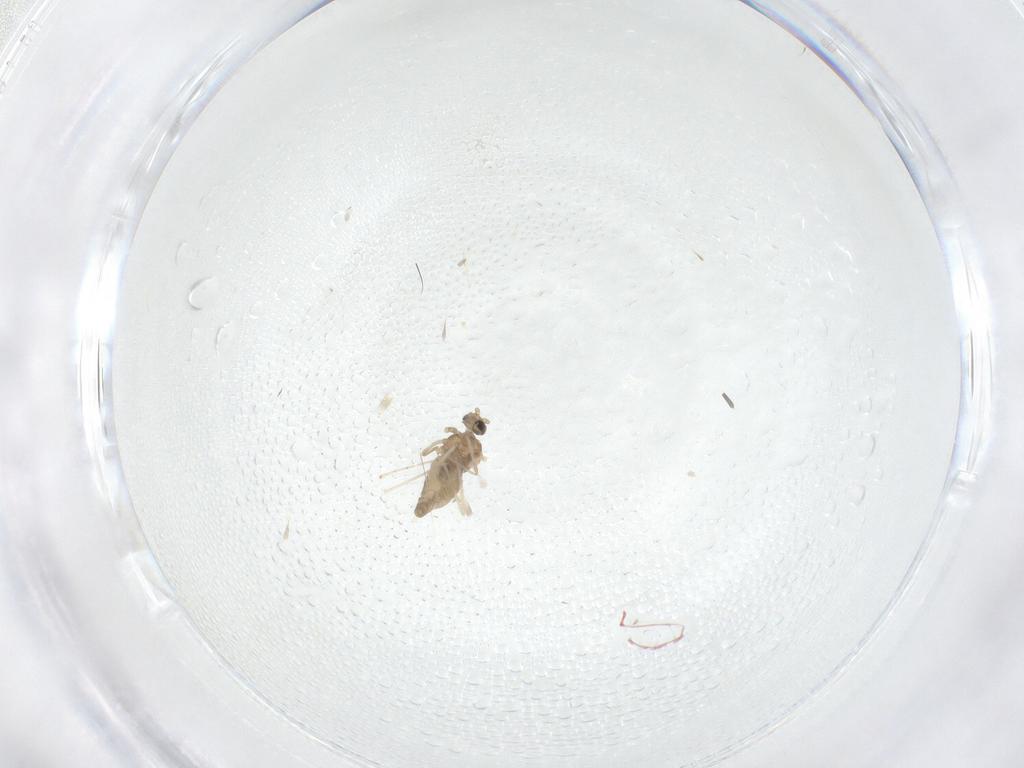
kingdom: Animalia
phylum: Arthropoda
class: Insecta
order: Diptera
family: Cecidomyiidae
